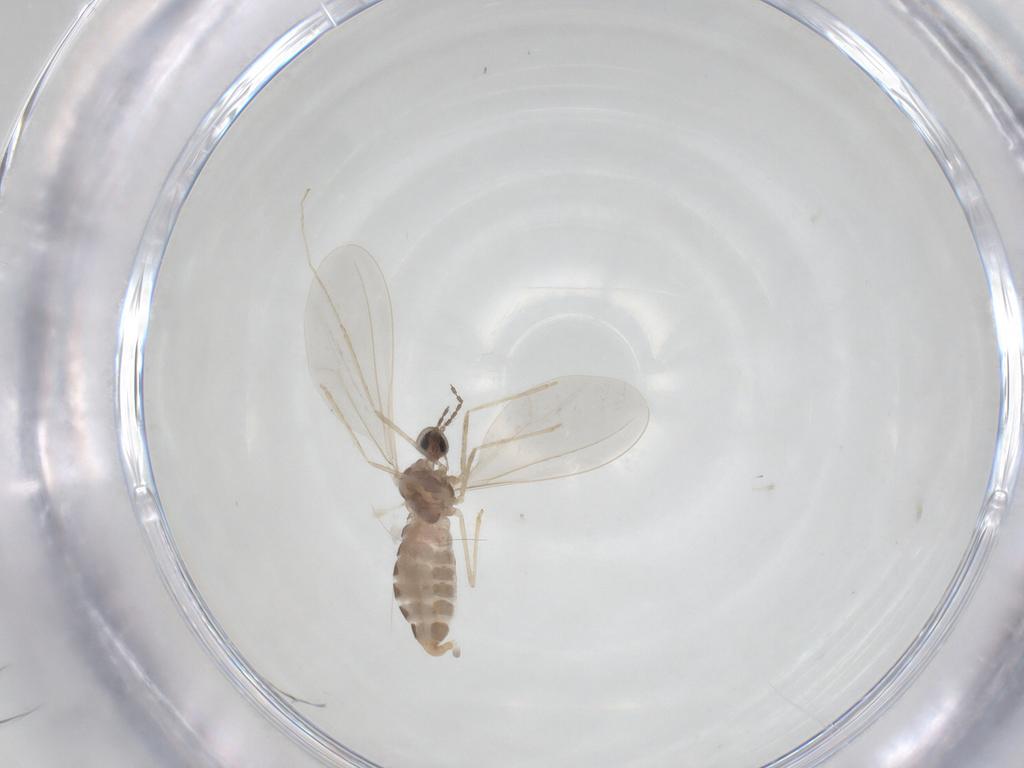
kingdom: Animalia
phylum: Arthropoda
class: Insecta
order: Diptera
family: Cecidomyiidae
